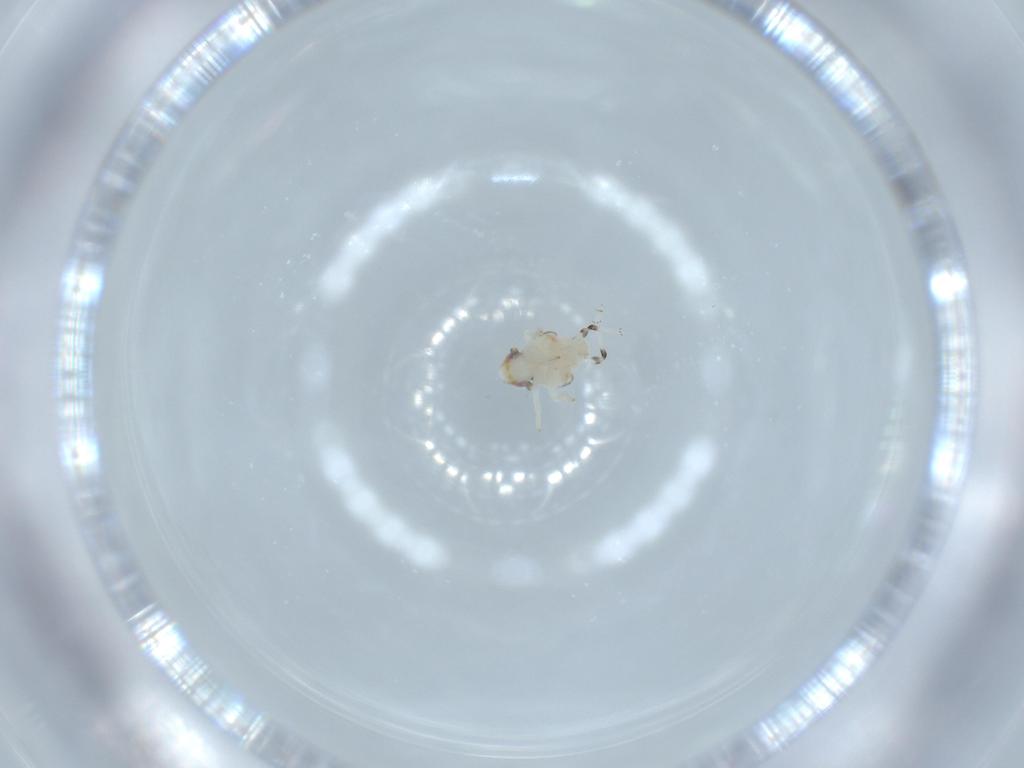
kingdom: Animalia
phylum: Arthropoda
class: Insecta
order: Hemiptera
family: Nogodinidae
